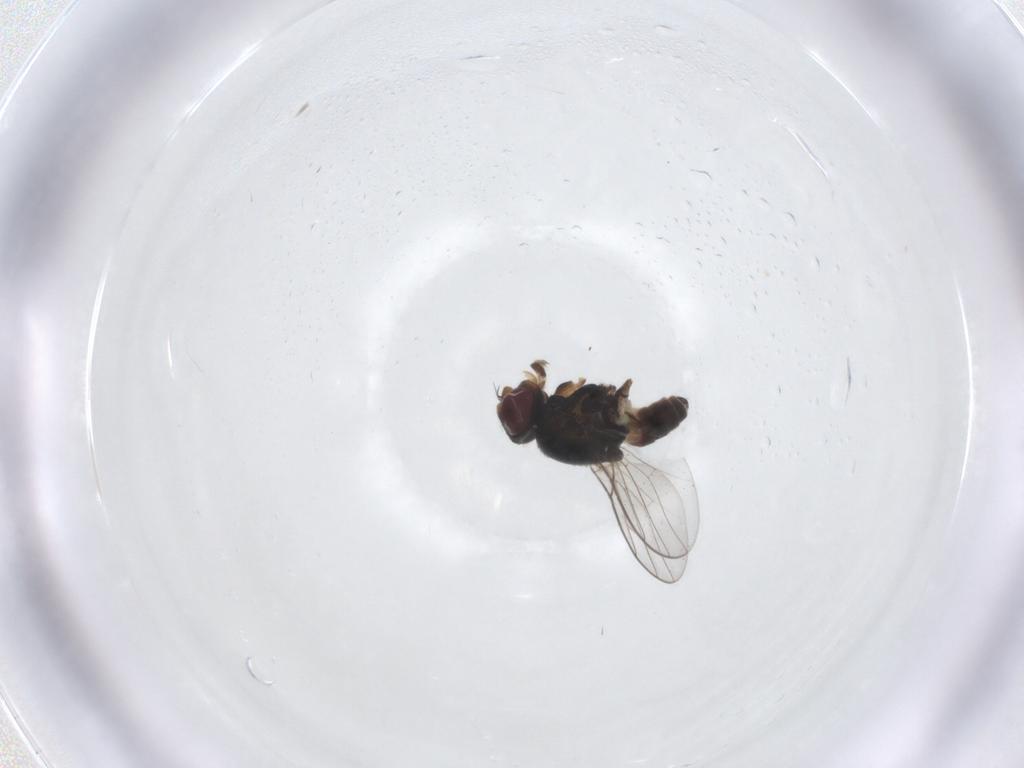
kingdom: Animalia
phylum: Arthropoda
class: Insecta
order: Diptera
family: Chloropidae
